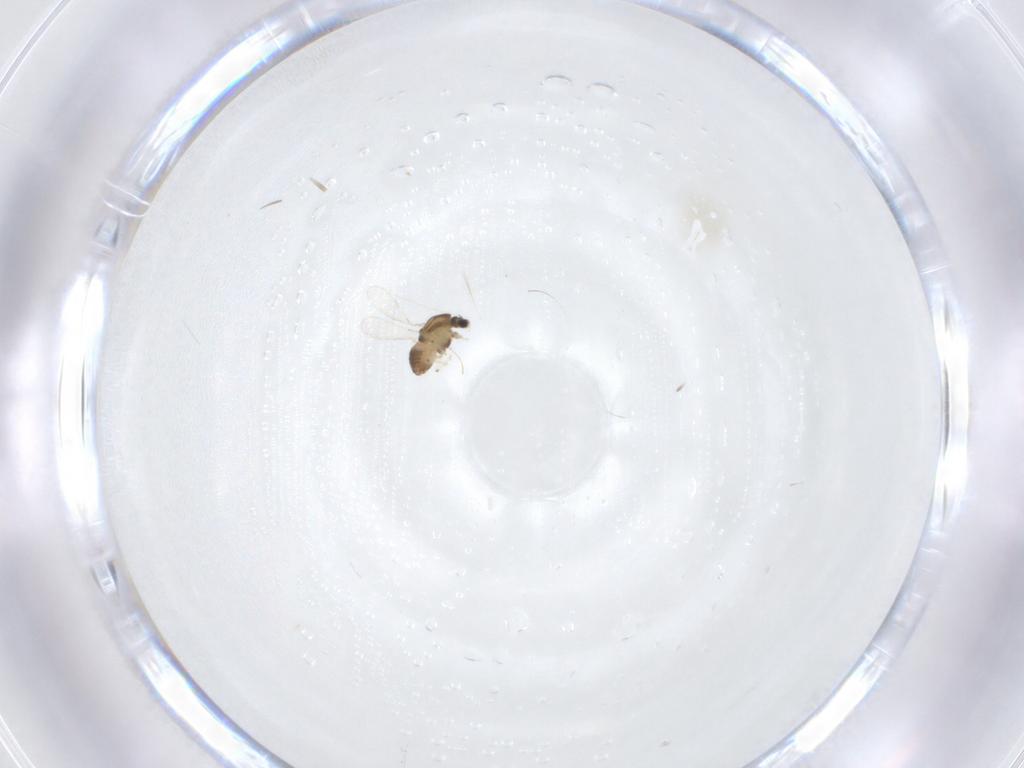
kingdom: Animalia
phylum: Arthropoda
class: Insecta
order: Diptera
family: Chironomidae
